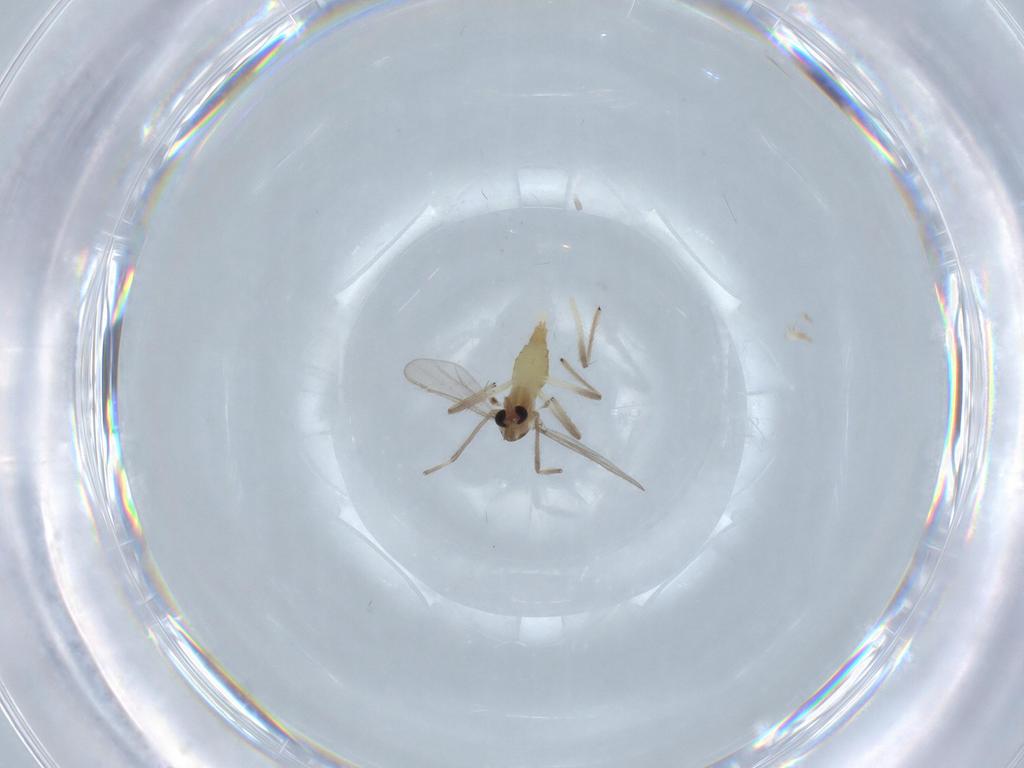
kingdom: Animalia
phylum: Arthropoda
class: Insecta
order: Diptera
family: Chironomidae
